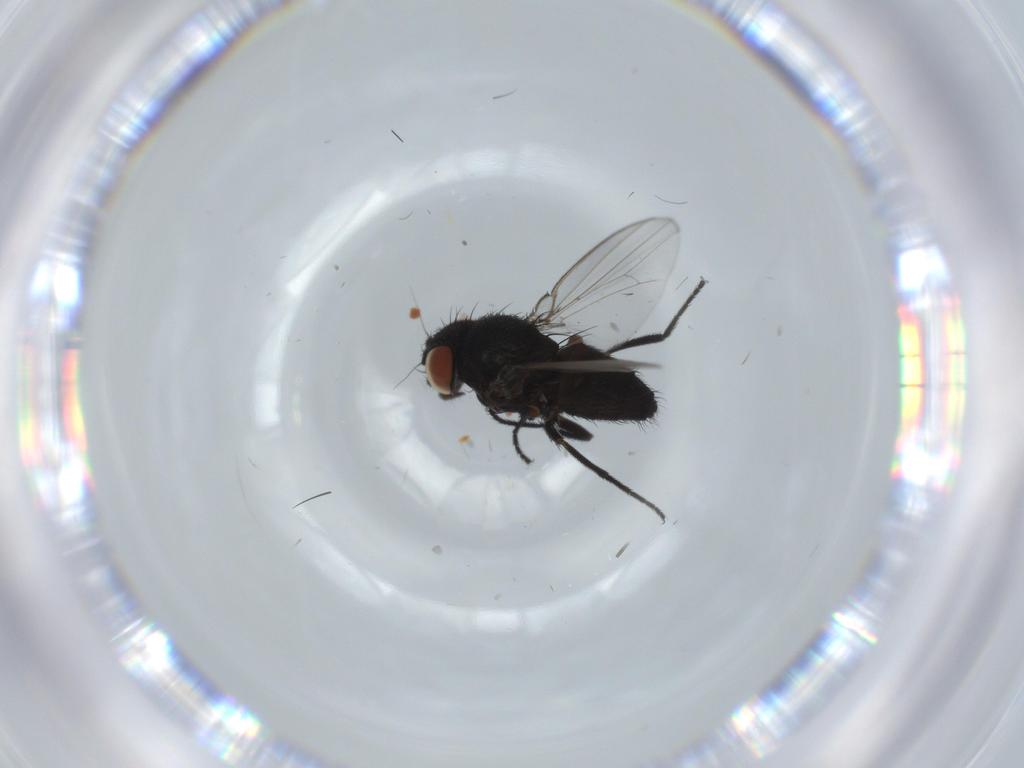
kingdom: Animalia
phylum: Arthropoda
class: Insecta
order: Diptera
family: Milichiidae
